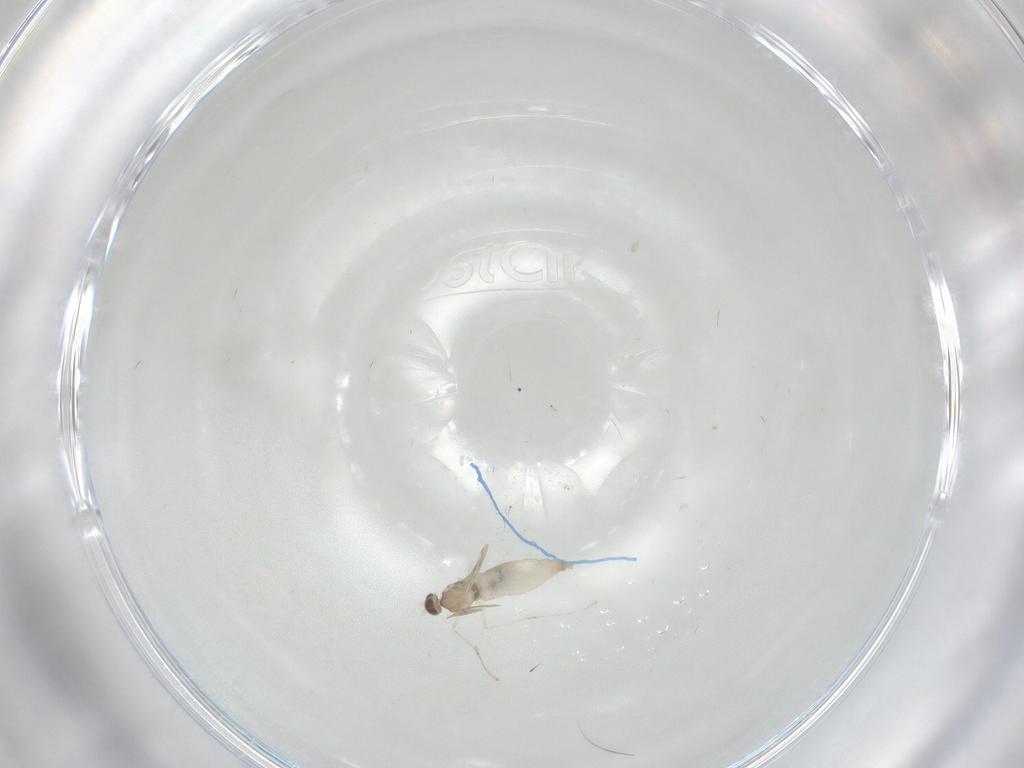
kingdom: Animalia
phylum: Arthropoda
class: Insecta
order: Diptera
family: Cecidomyiidae
